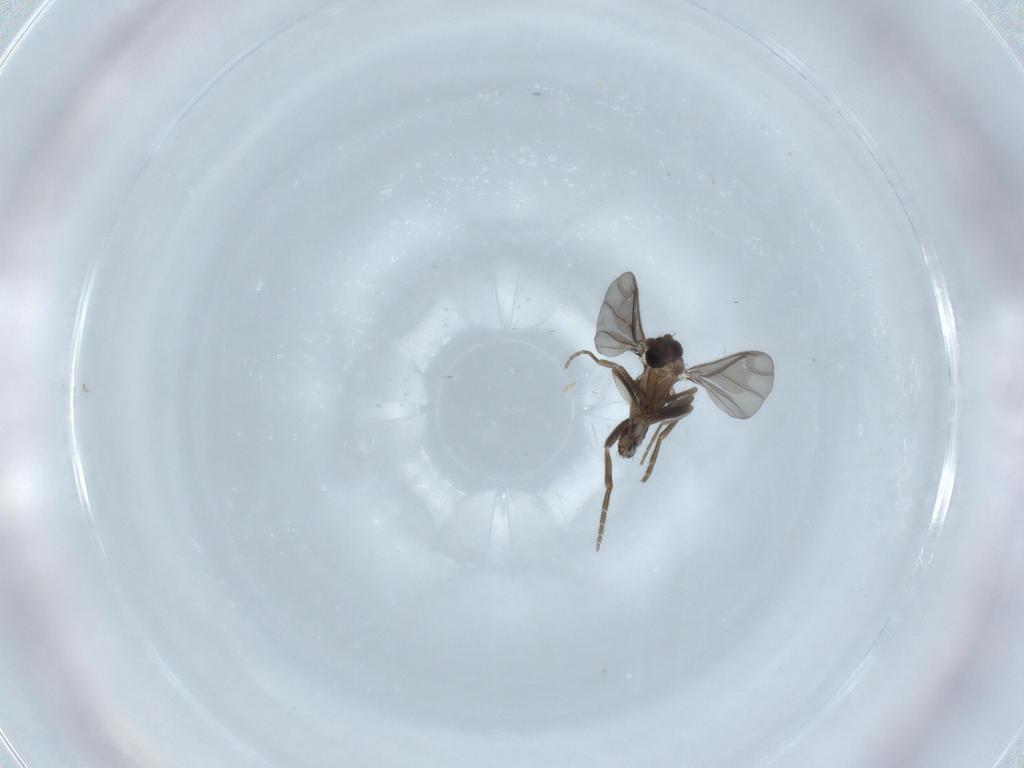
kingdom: Animalia
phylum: Arthropoda
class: Insecta
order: Diptera
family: Phoridae
